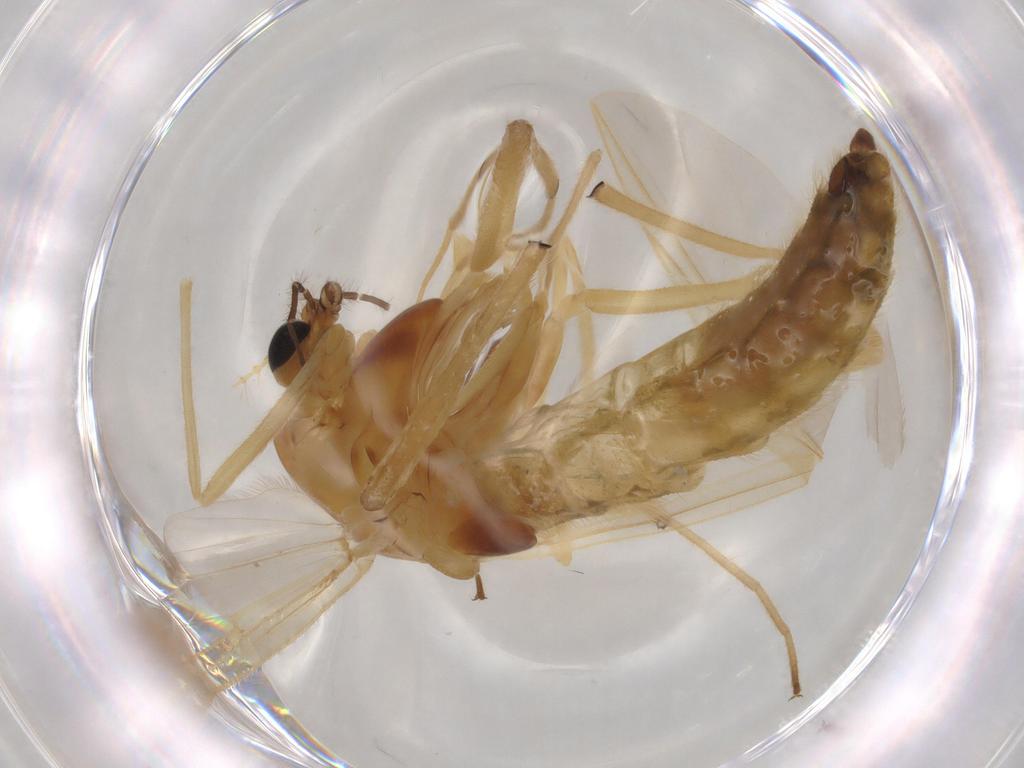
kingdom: Animalia
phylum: Arthropoda
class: Insecta
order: Diptera
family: Chironomidae
